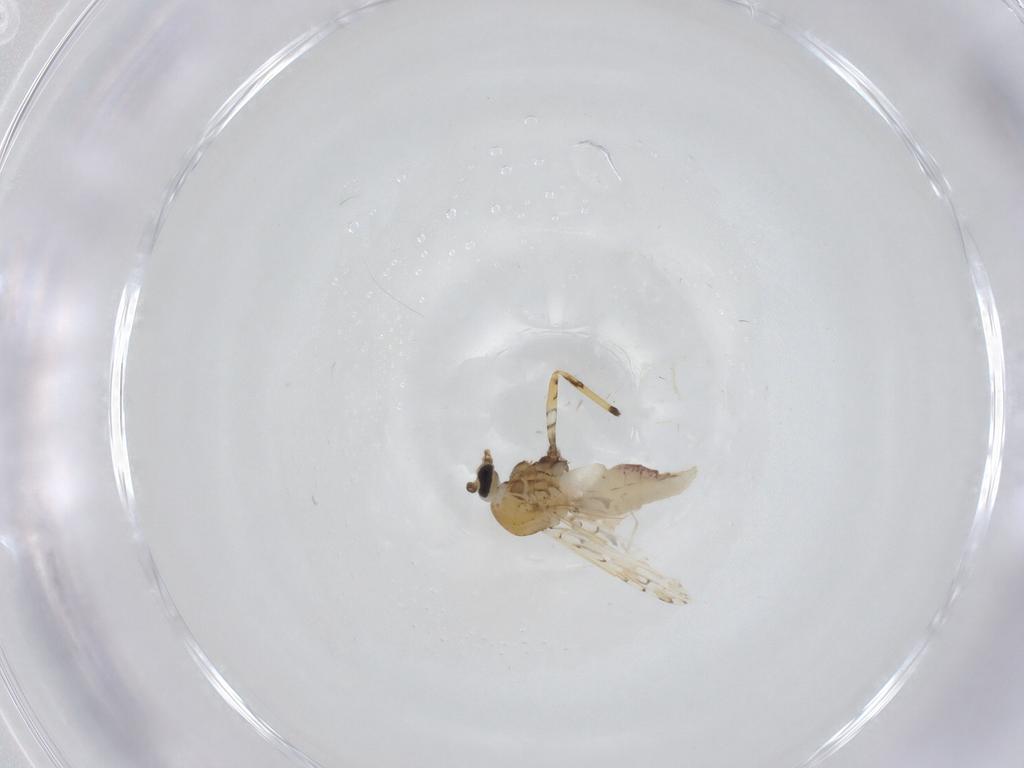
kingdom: Animalia
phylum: Arthropoda
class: Insecta
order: Diptera
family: Ceratopogonidae
